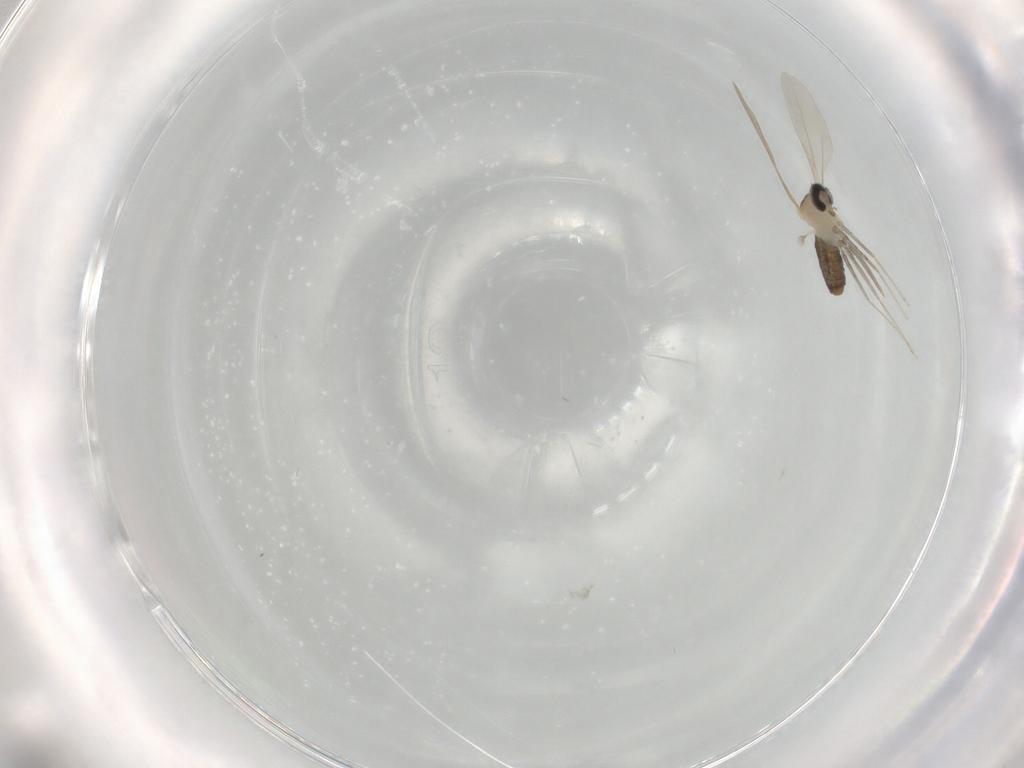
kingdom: Animalia
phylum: Arthropoda
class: Insecta
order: Diptera
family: Cecidomyiidae
